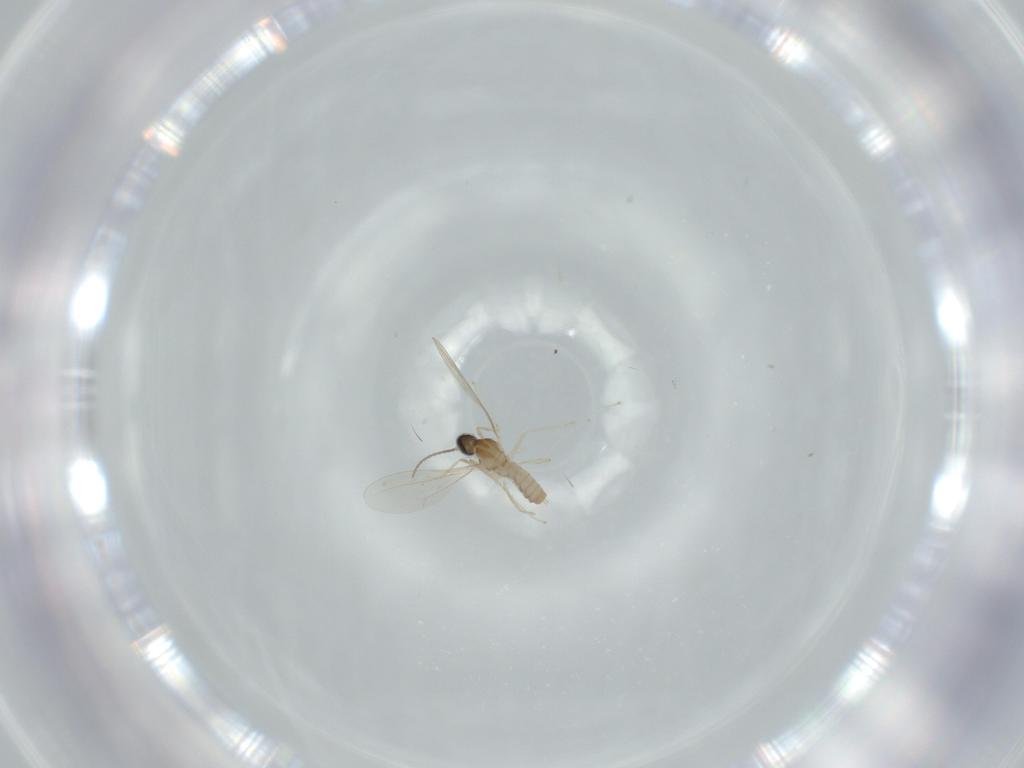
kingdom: Animalia
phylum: Arthropoda
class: Insecta
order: Diptera
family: Cecidomyiidae
